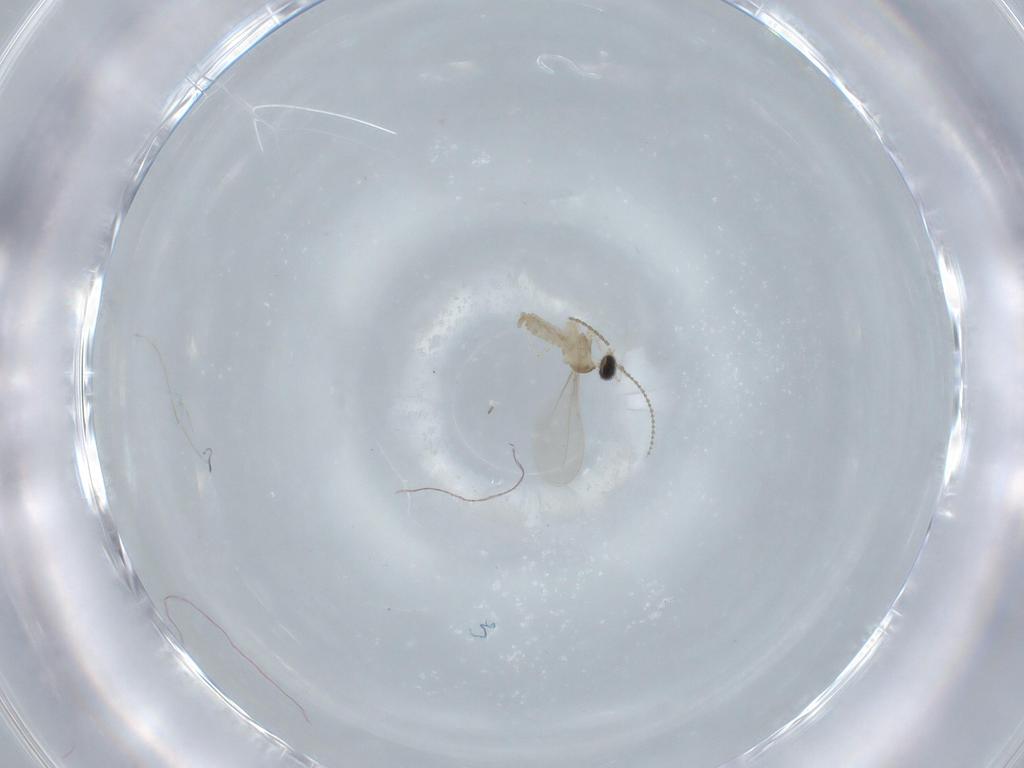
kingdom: Animalia
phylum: Arthropoda
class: Insecta
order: Diptera
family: Cecidomyiidae
